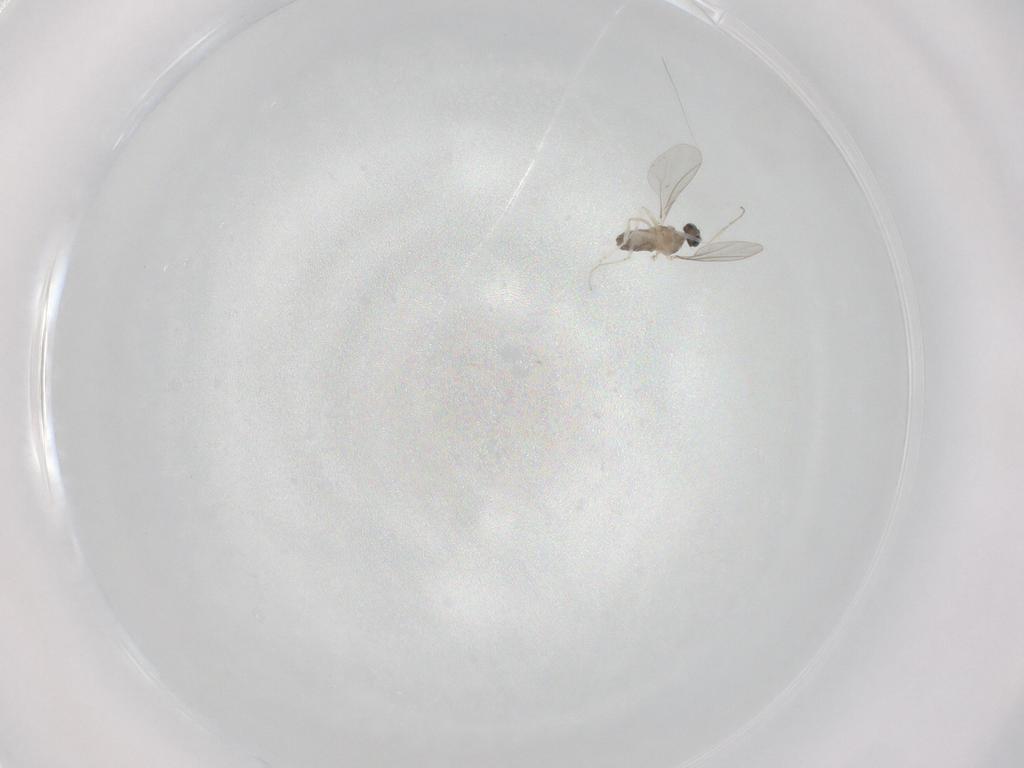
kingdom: Animalia
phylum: Arthropoda
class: Insecta
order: Diptera
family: Cecidomyiidae
